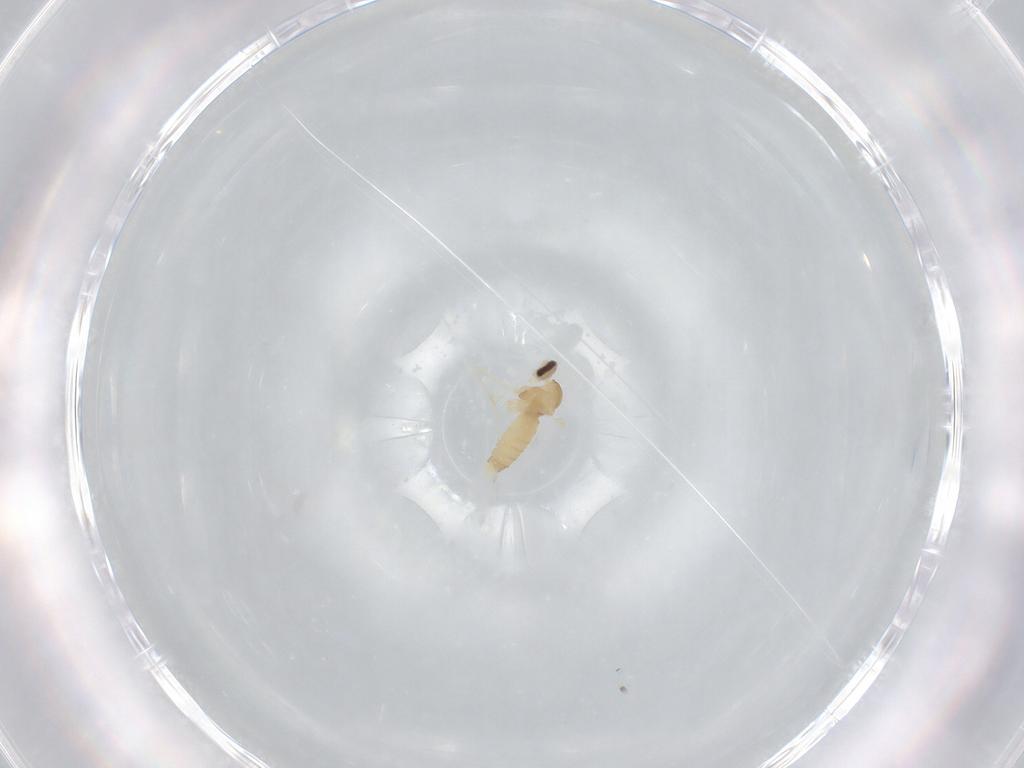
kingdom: Animalia
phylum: Arthropoda
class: Insecta
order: Diptera
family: Cecidomyiidae
